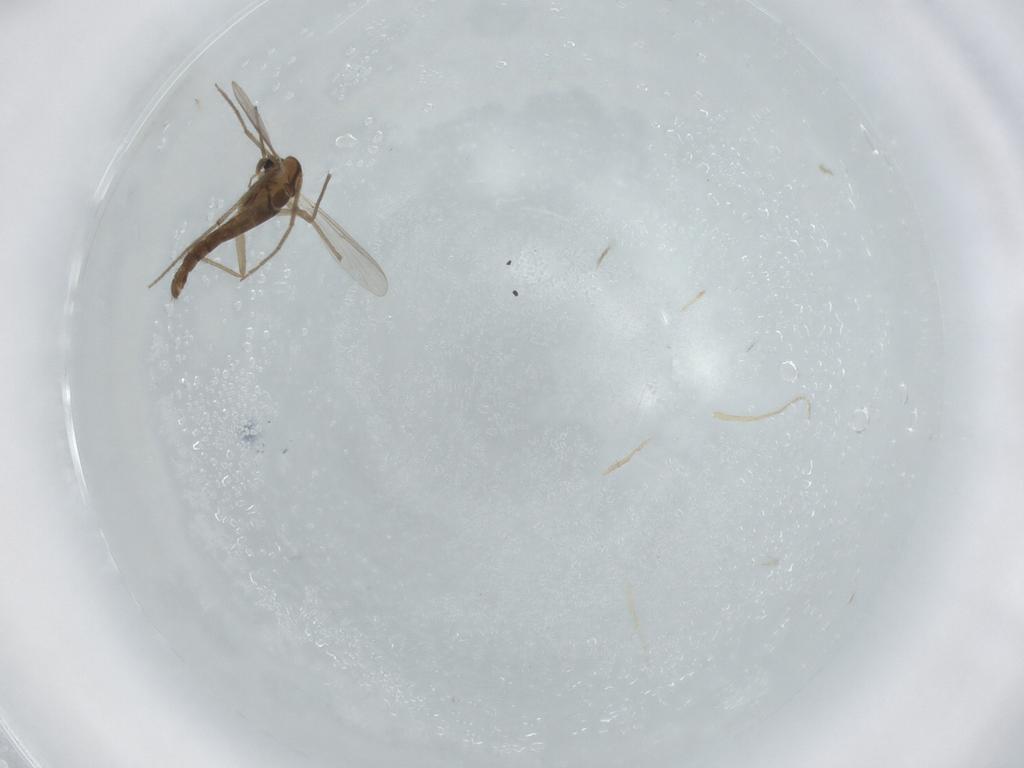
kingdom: Animalia
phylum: Arthropoda
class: Insecta
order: Diptera
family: Chironomidae
